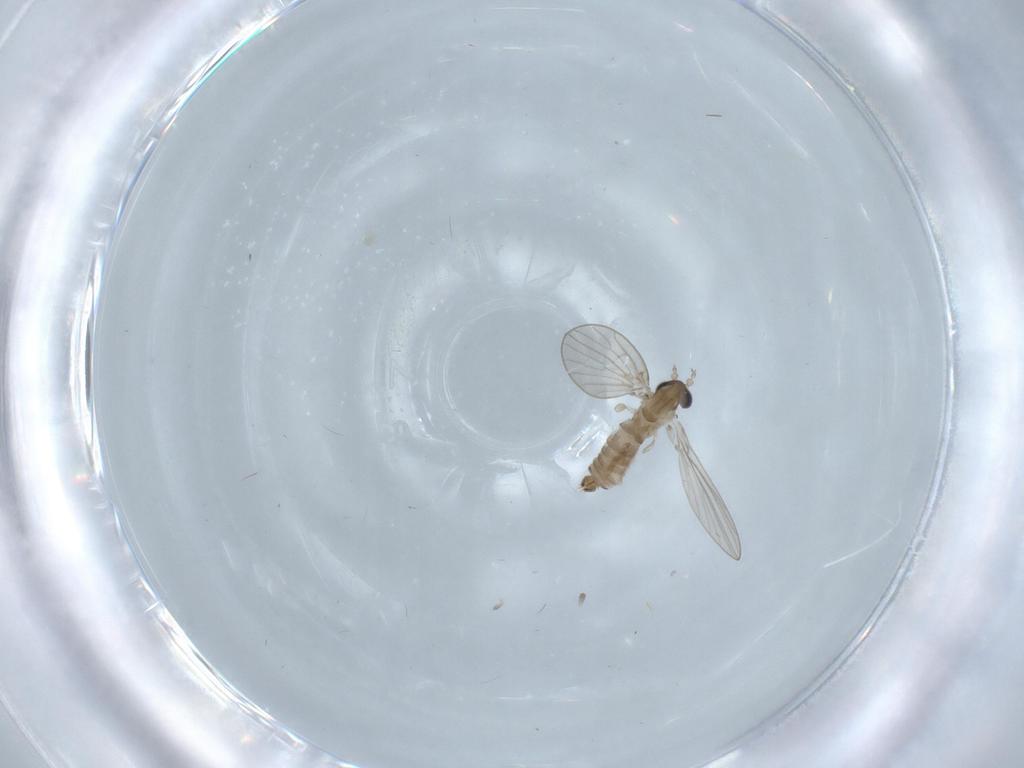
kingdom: Animalia
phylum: Arthropoda
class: Insecta
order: Diptera
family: Psychodidae
